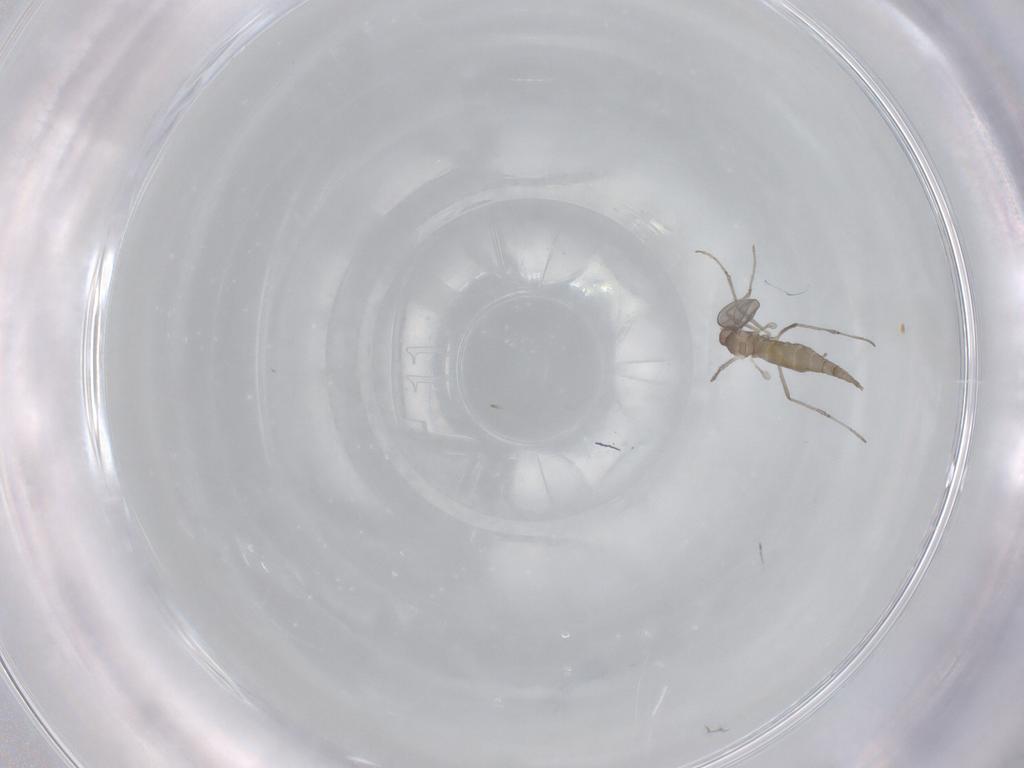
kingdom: Animalia
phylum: Arthropoda
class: Insecta
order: Diptera
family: Cecidomyiidae
